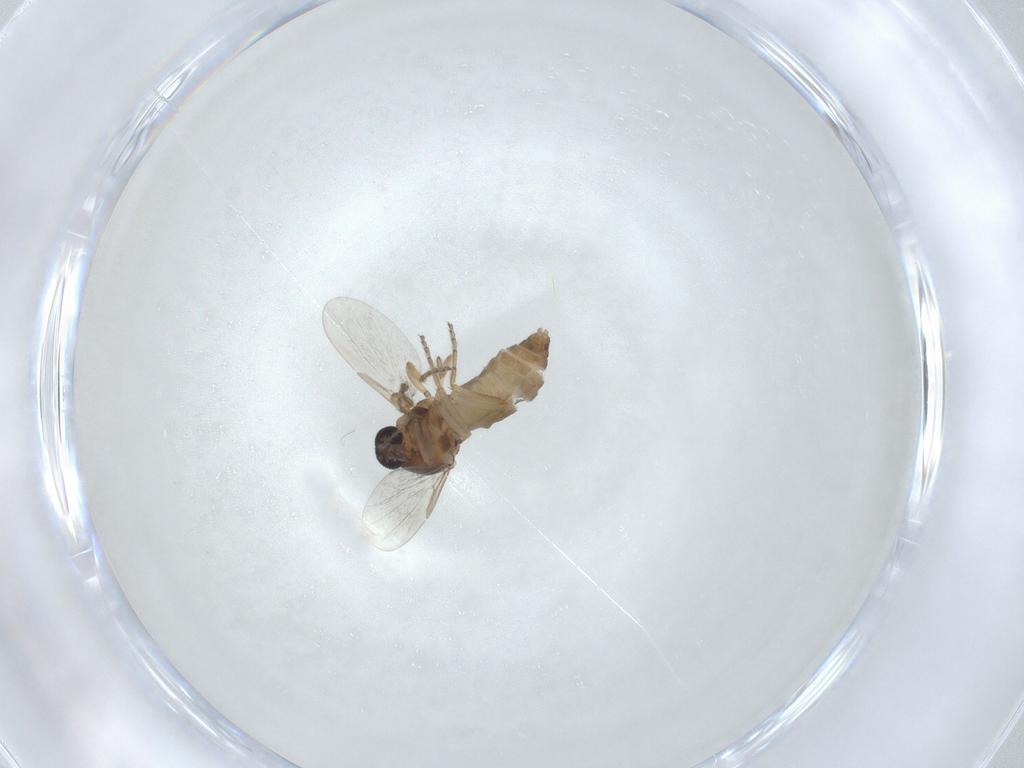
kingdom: Animalia
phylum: Arthropoda
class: Insecta
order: Diptera
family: Ceratopogonidae
